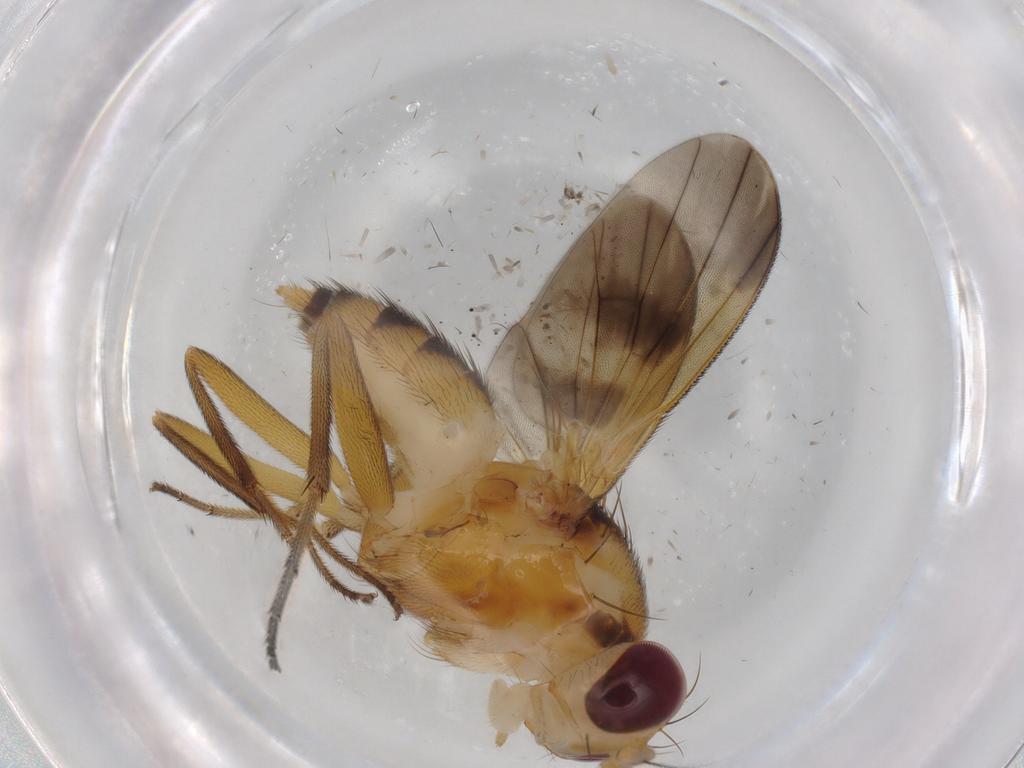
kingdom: Animalia
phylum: Arthropoda
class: Insecta
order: Diptera
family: Clusiidae
